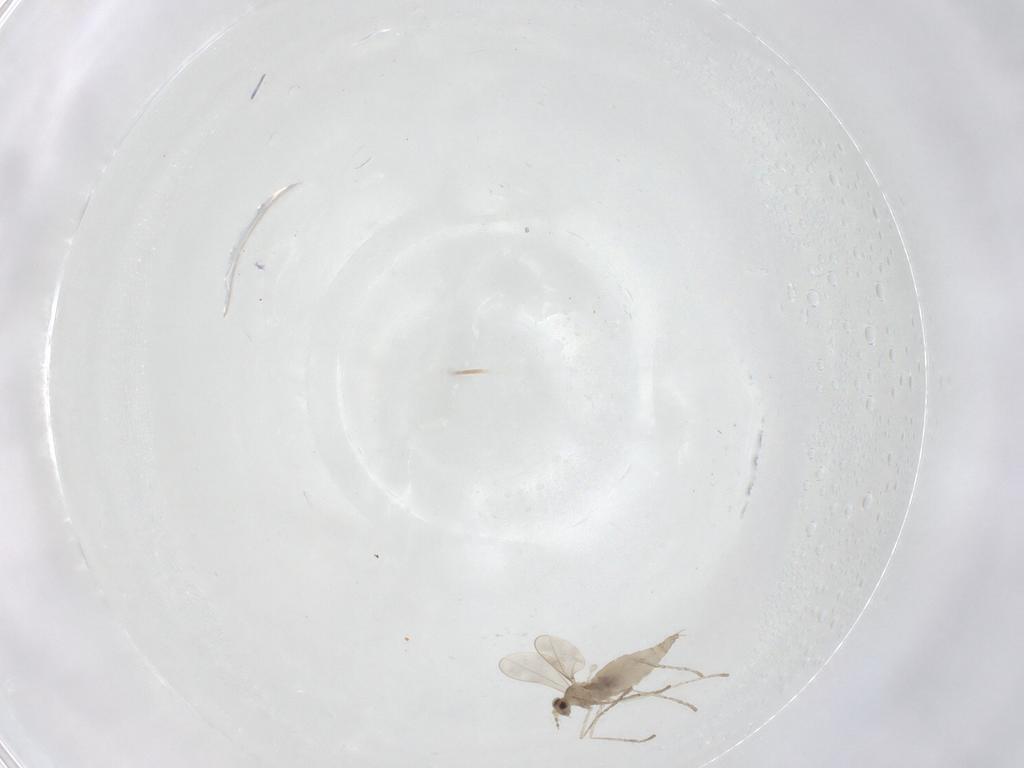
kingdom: Animalia
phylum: Arthropoda
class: Insecta
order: Diptera
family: Cecidomyiidae
